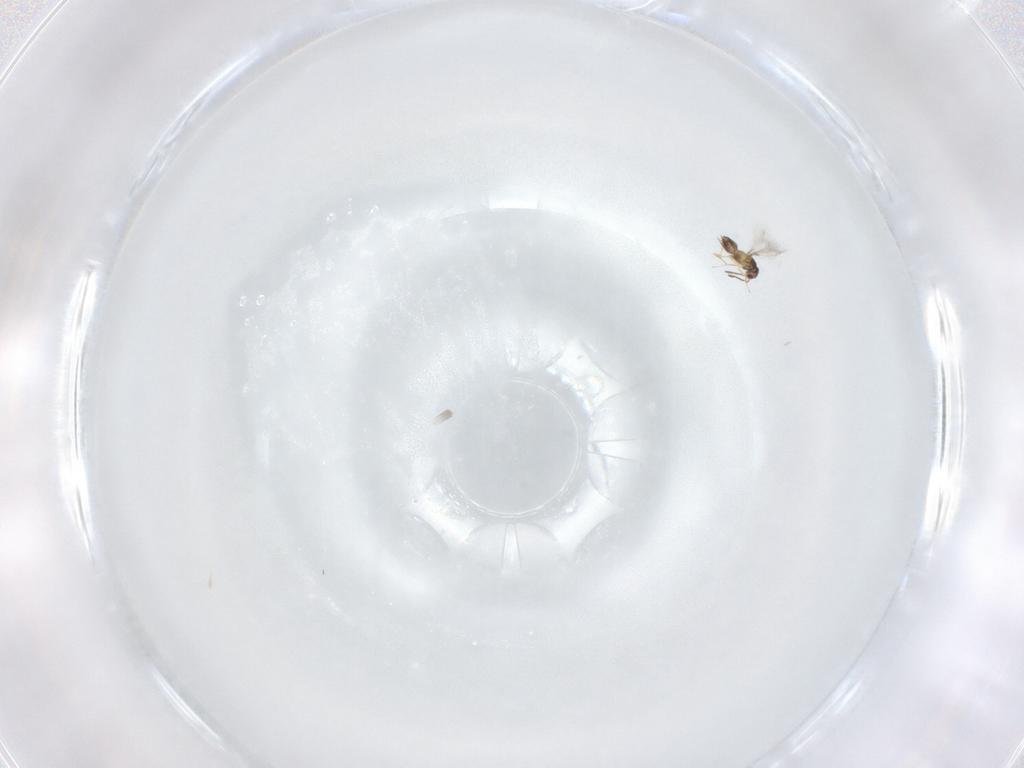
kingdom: Animalia
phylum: Arthropoda
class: Insecta
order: Hymenoptera
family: Mymaridae
